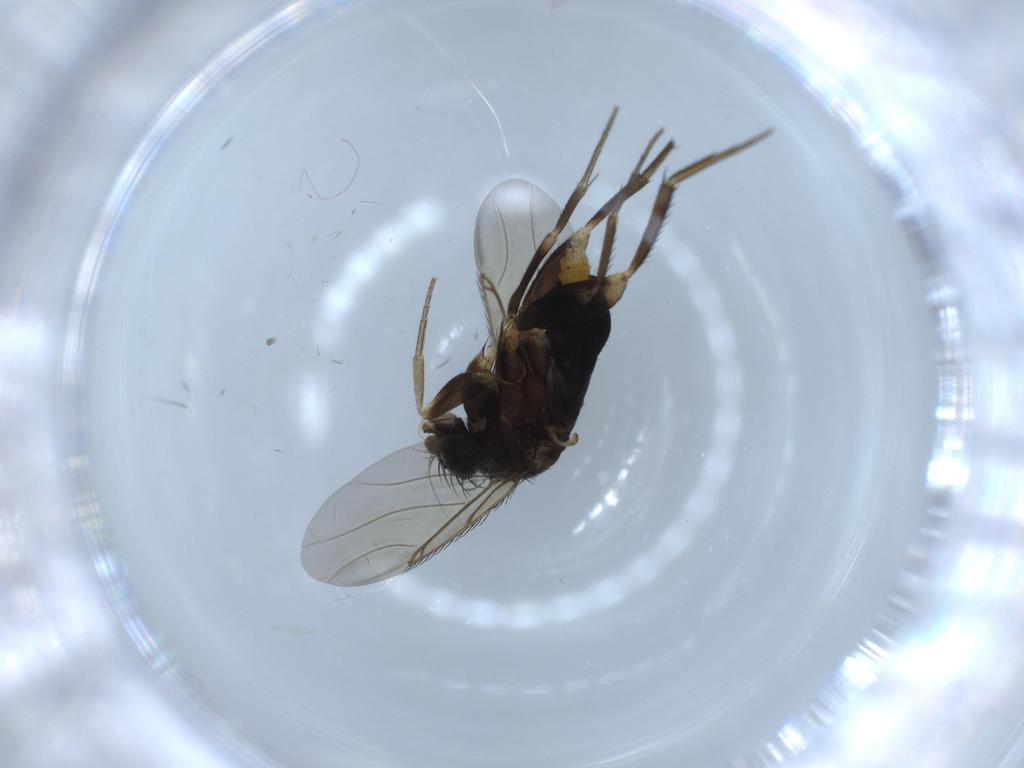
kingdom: Animalia
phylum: Arthropoda
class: Insecta
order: Diptera
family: Phoridae
